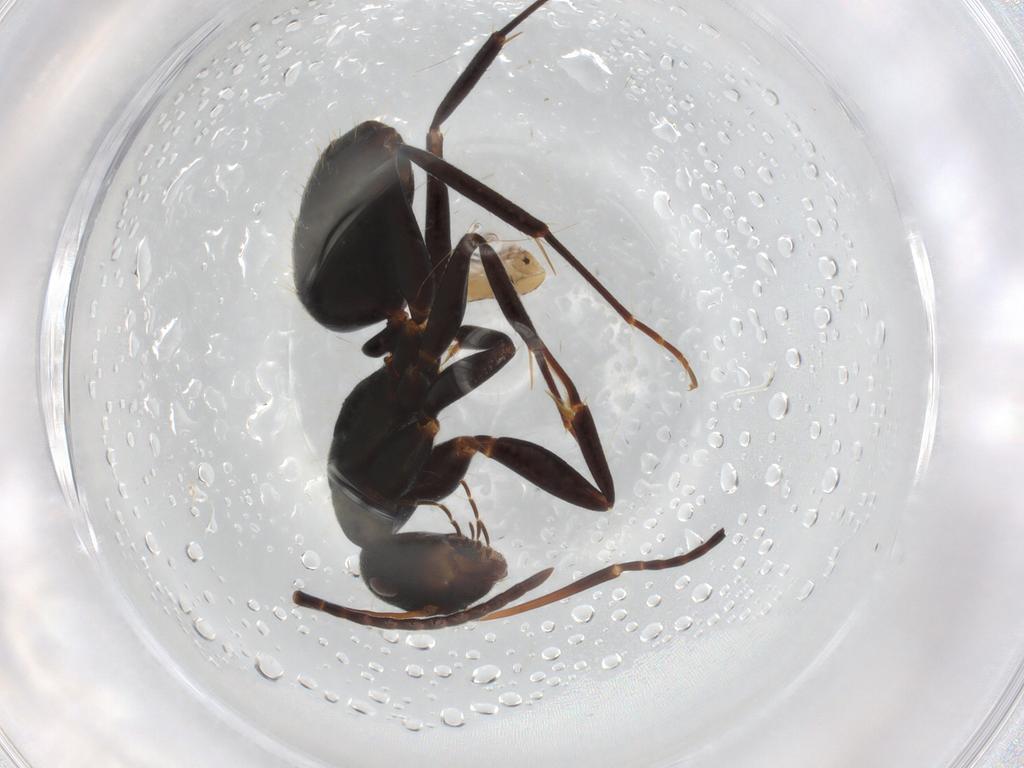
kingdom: Animalia
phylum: Arthropoda
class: Collembola
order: Entomobryomorpha
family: Entomobryidae
